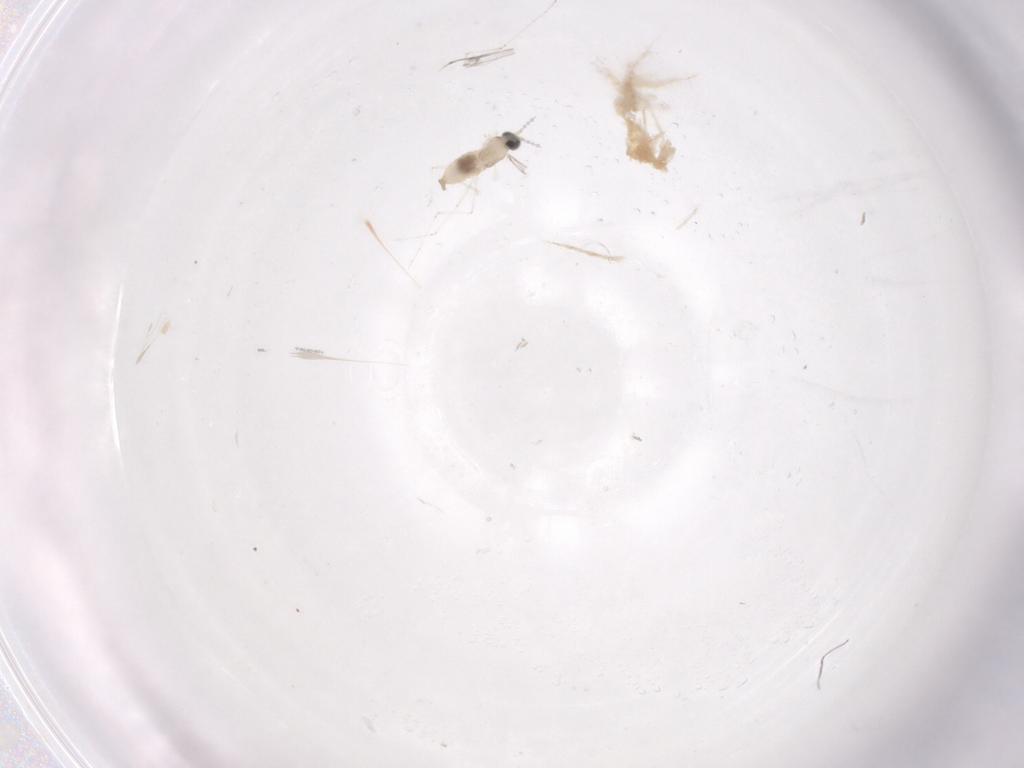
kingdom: Animalia
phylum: Arthropoda
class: Insecta
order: Diptera
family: Cecidomyiidae
